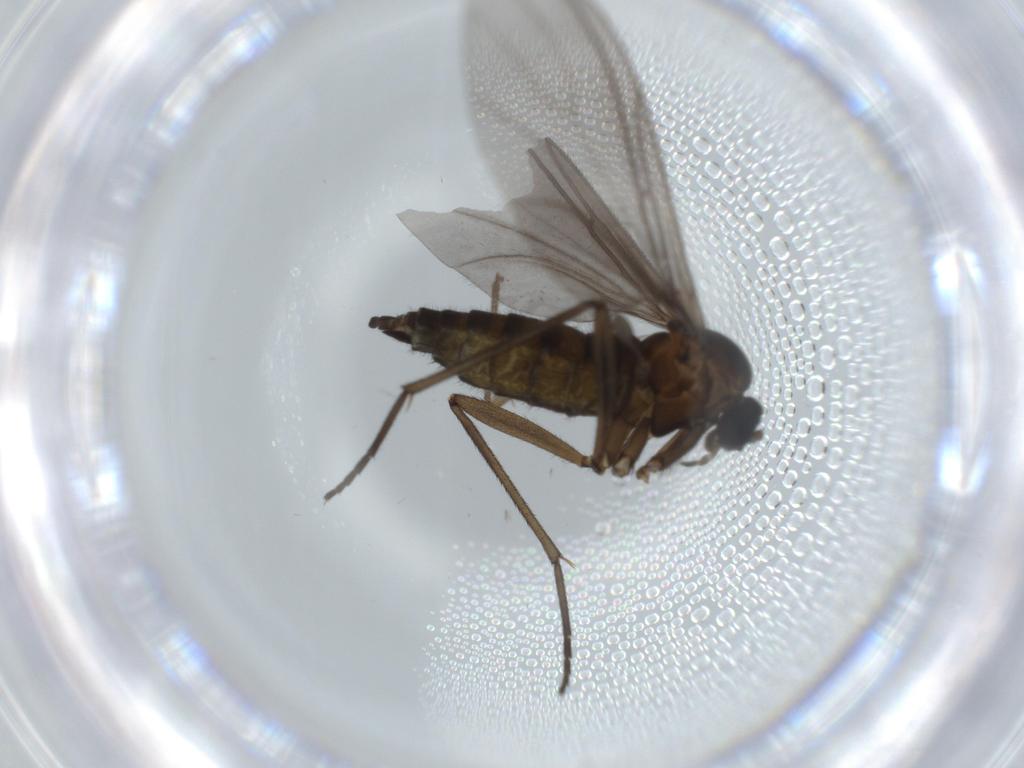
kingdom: Animalia
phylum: Arthropoda
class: Insecta
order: Diptera
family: Sciaridae
